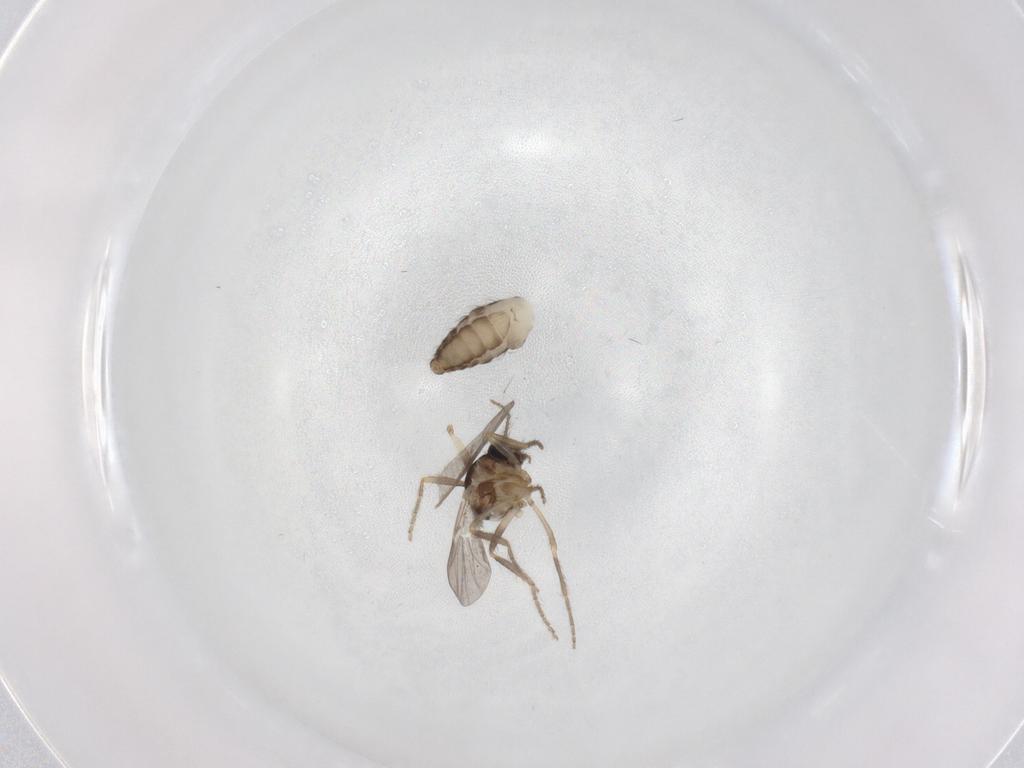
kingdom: Animalia
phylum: Arthropoda
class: Insecta
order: Diptera
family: Ceratopogonidae
